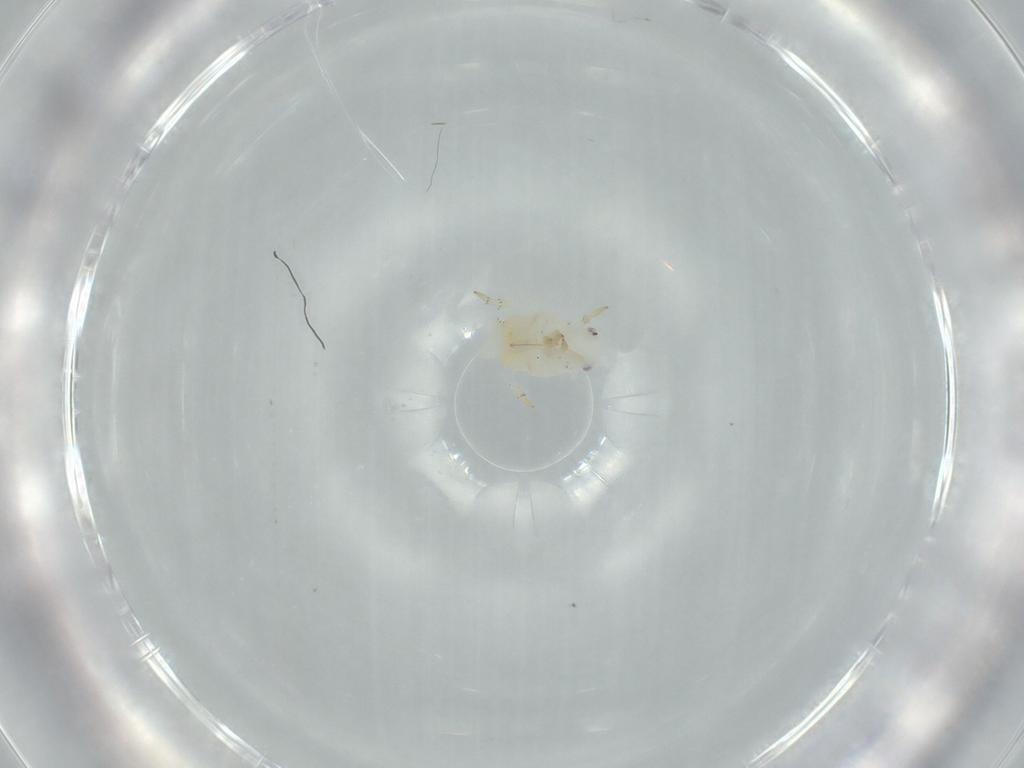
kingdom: Animalia
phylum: Arthropoda
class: Insecta
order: Hemiptera
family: Flatidae
